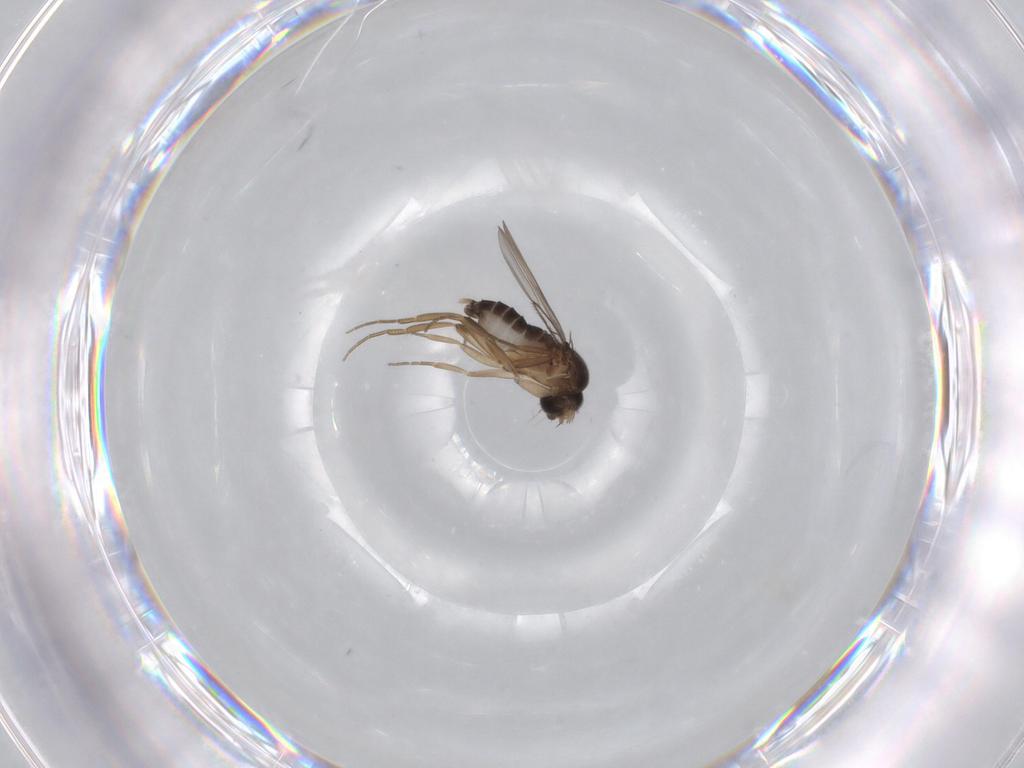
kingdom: Animalia
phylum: Arthropoda
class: Insecta
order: Diptera
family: Phoridae
